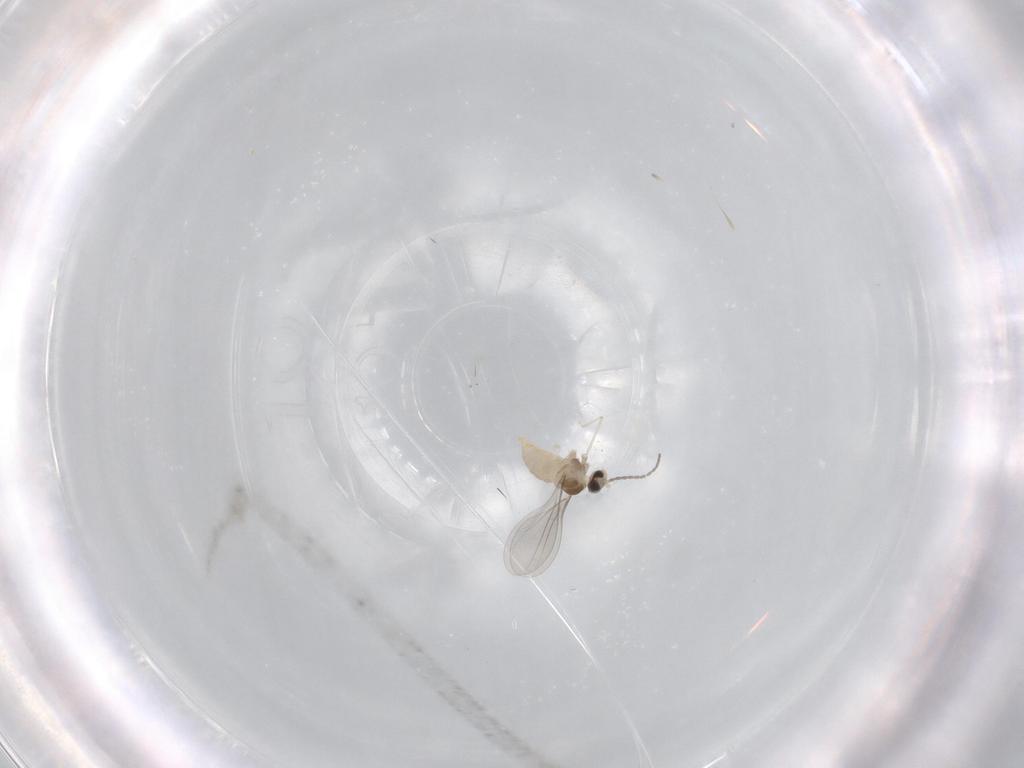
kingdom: Animalia
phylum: Arthropoda
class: Insecta
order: Diptera
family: Cecidomyiidae
